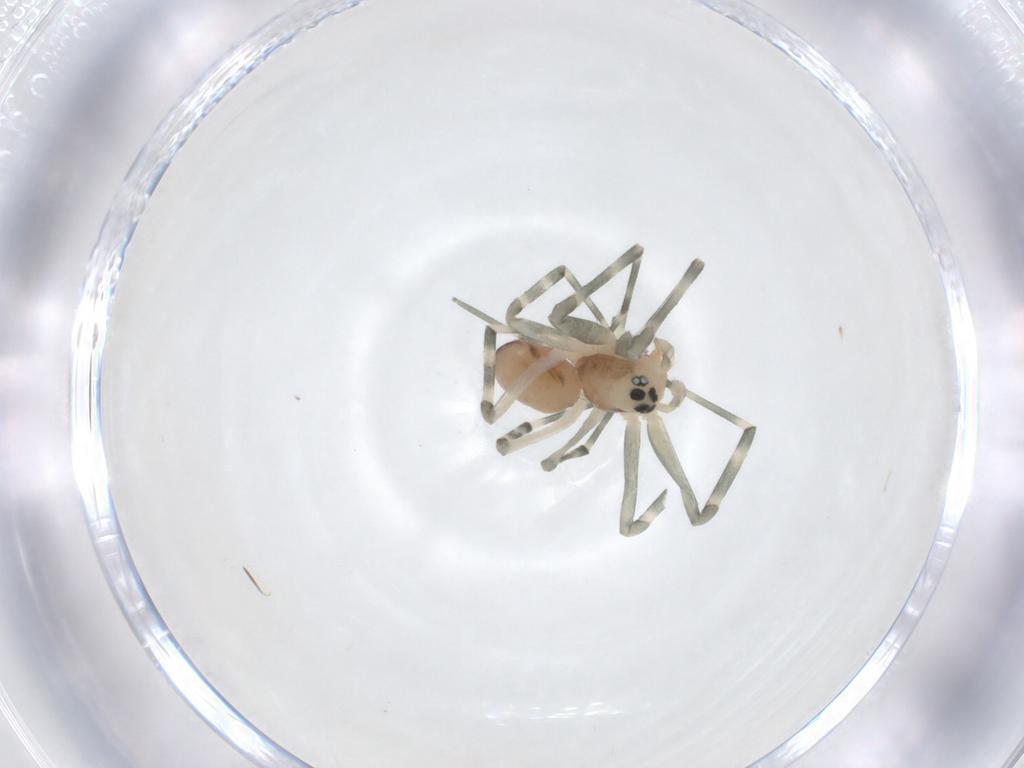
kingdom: Animalia
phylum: Arthropoda
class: Arachnida
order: Araneae
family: Linyphiidae
